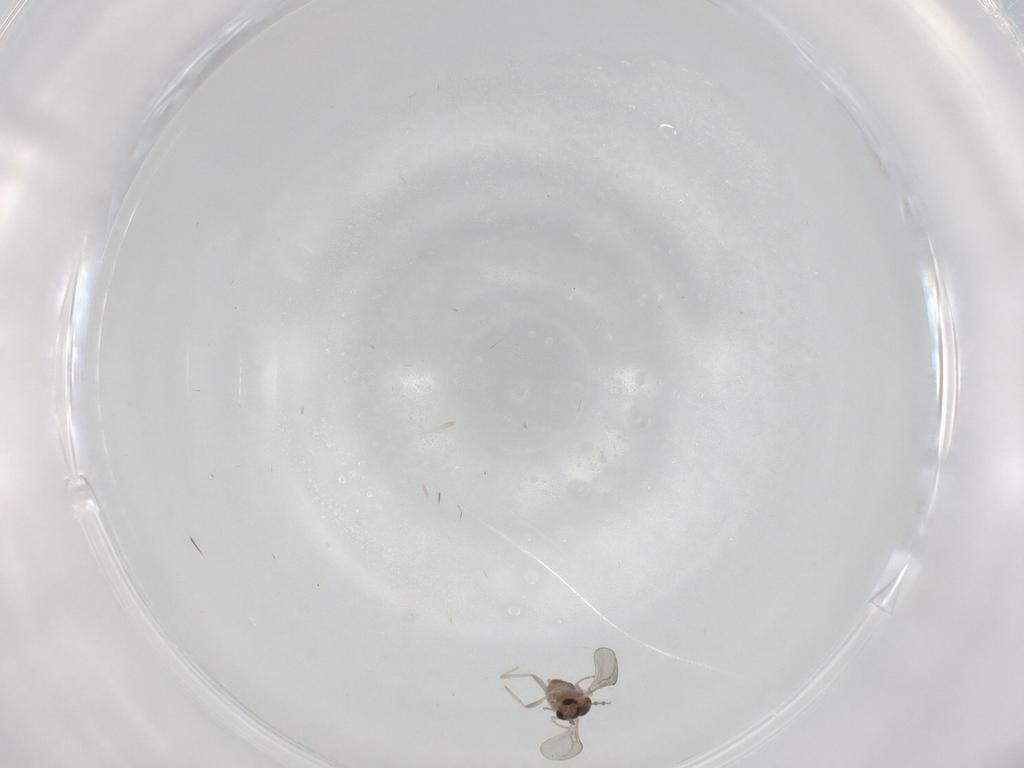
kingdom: Animalia
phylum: Arthropoda
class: Insecta
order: Diptera
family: Cecidomyiidae
